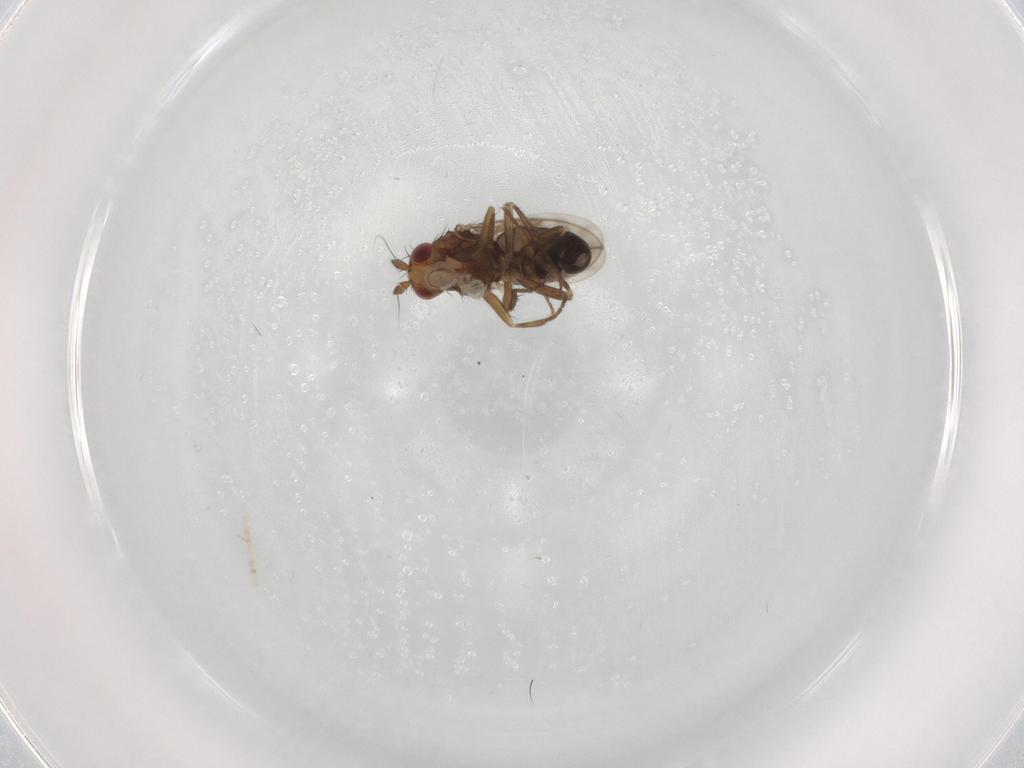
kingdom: Animalia
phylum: Arthropoda
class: Insecta
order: Diptera
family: Sphaeroceridae
